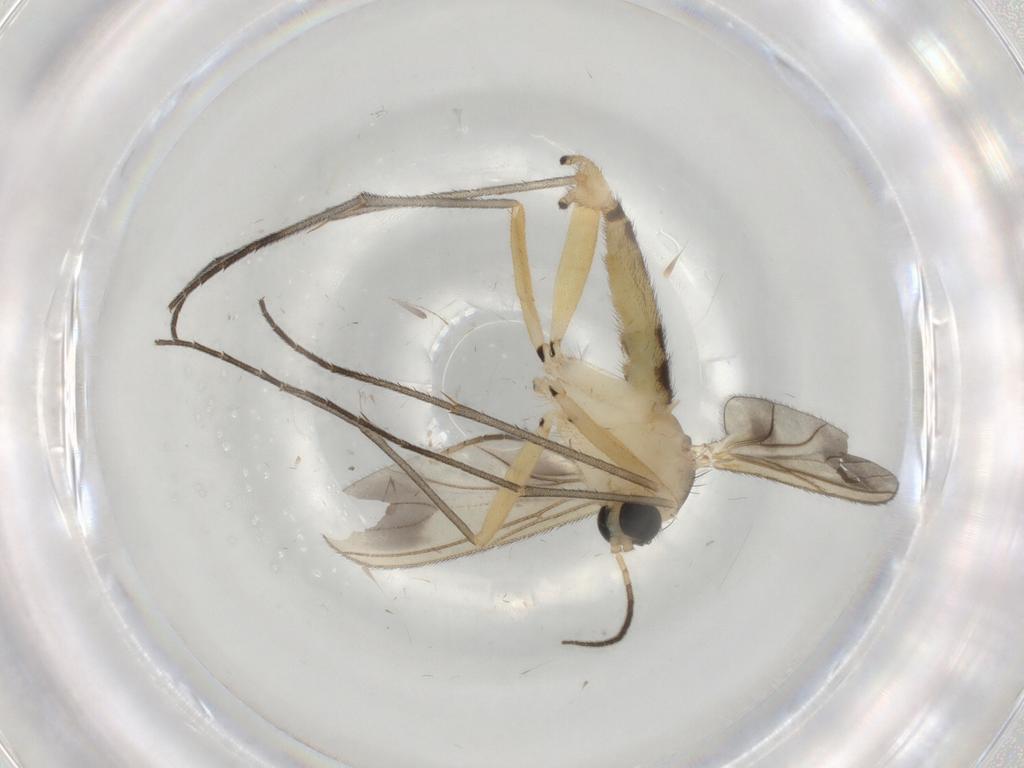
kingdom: Animalia
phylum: Arthropoda
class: Insecta
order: Diptera
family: Sciaridae
